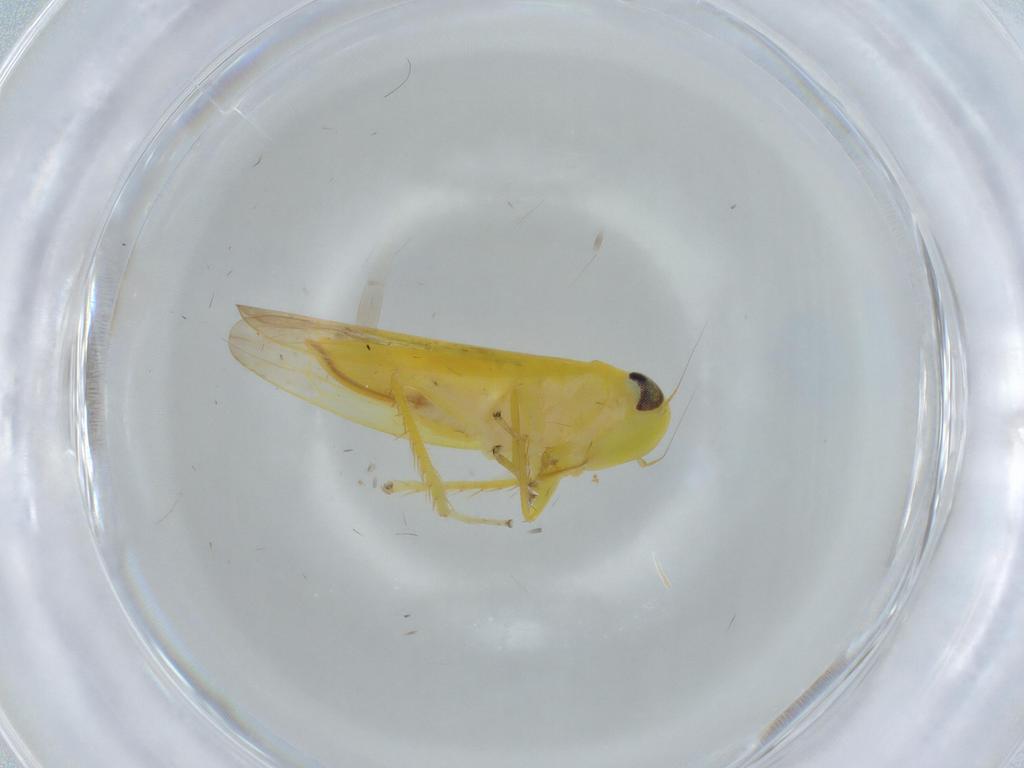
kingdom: Animalia
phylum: Arthropoda
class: Insecta
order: Hemiptera
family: Cicadellidae
